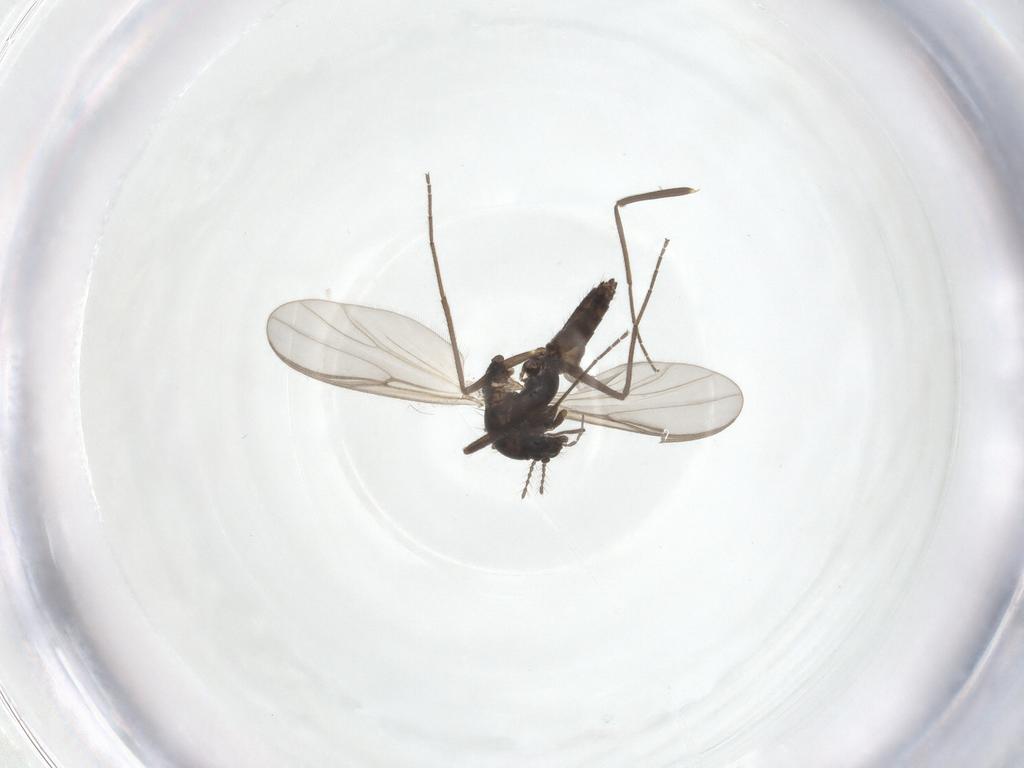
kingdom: Animalia
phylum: Arthropoda
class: Insecta
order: Diptera
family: Chironomidae
